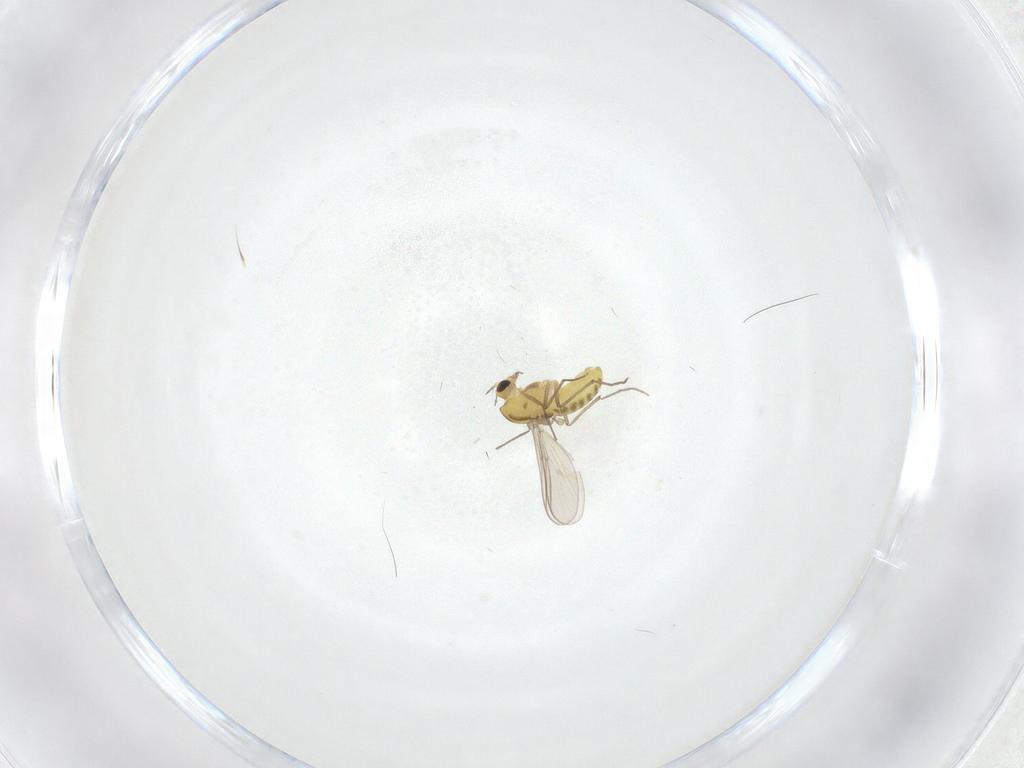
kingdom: Animalia
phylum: Arthropoda
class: Insecta
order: Diptera
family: Chironomidae
